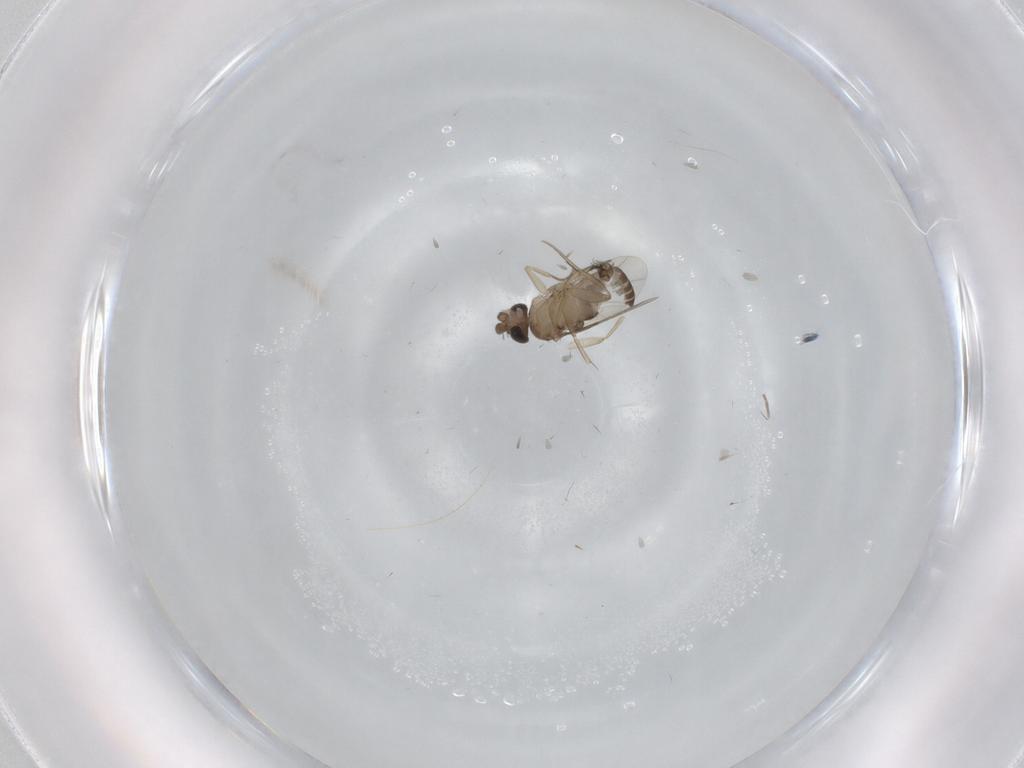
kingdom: Animalia
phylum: Arthropoda
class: Insecta
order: Diptera
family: Phoridae
